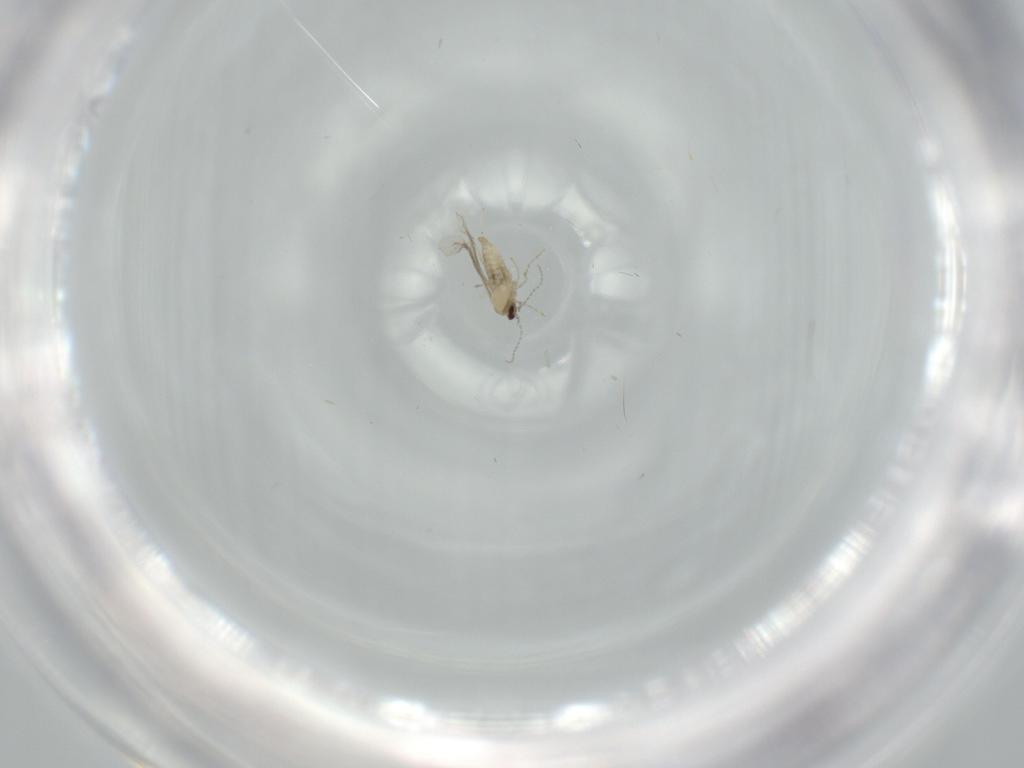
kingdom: Animalia
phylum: Arthropoda
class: Insecta
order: Diptera
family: Cecidomyiidae
